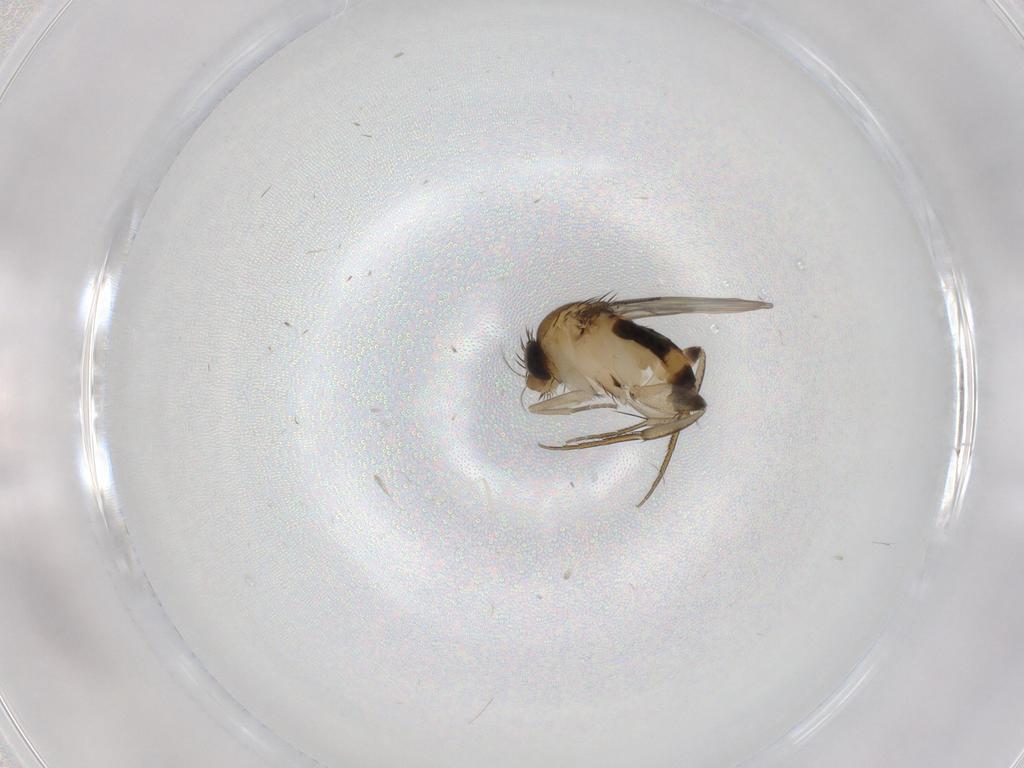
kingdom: Animalia
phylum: Arthropoda
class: Insecta
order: Diptera
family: Phoridae
